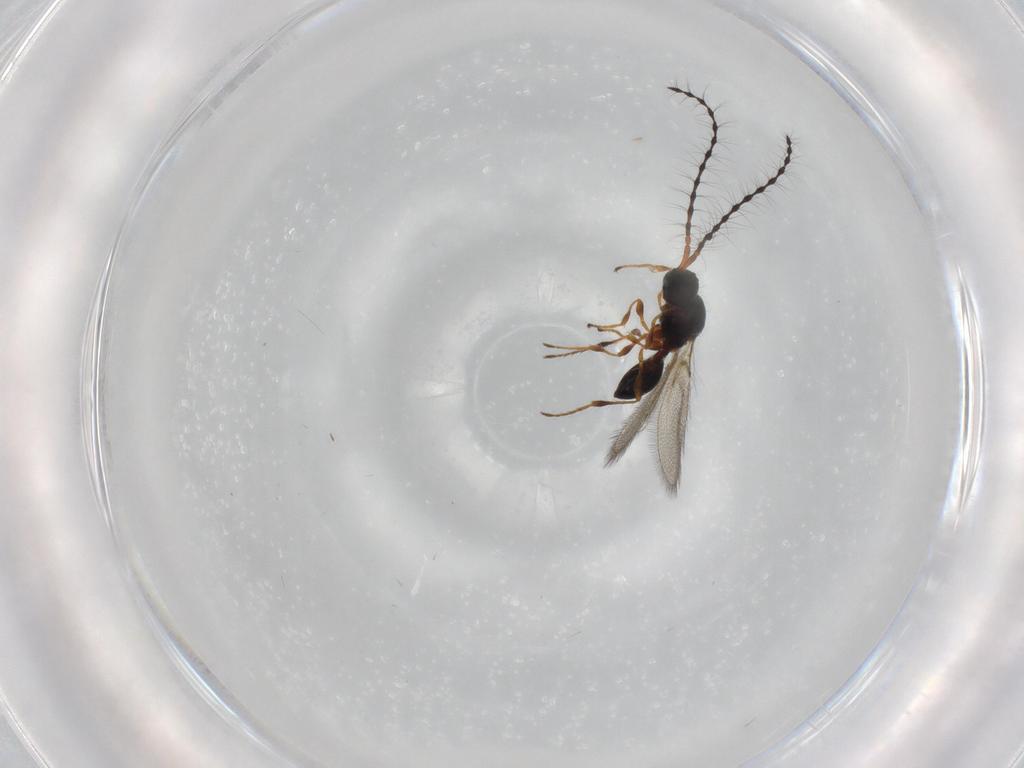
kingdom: Animalia
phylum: Arthropoda
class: Insecta
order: Hymenoptera
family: Diapriidae
